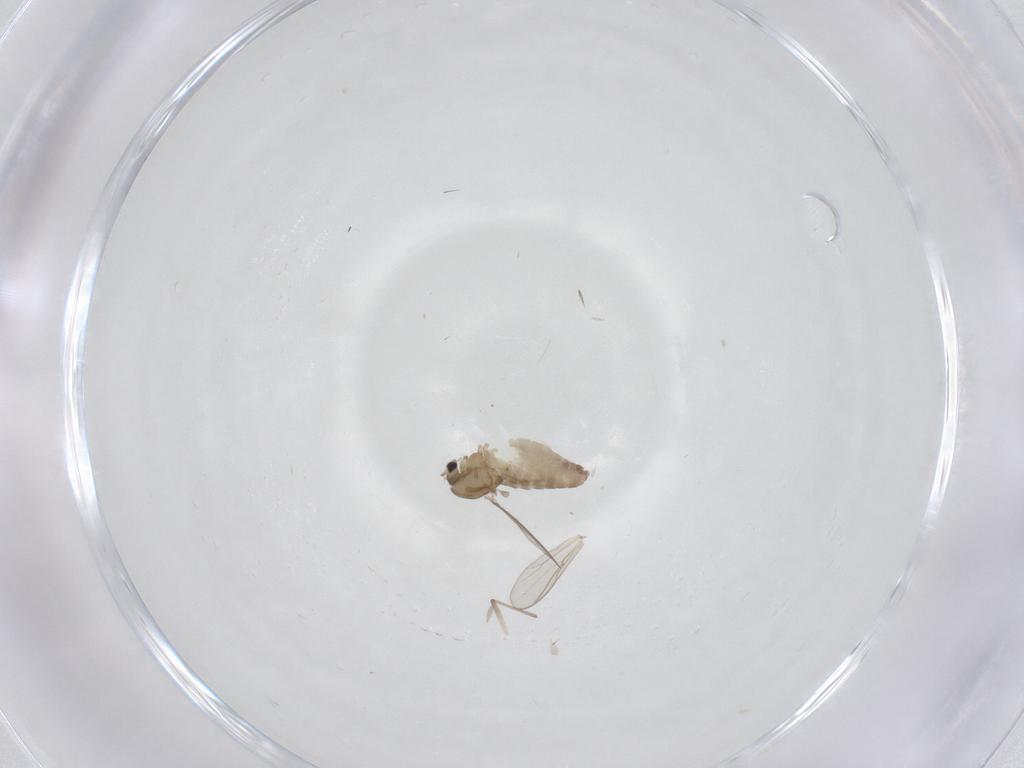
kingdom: Animalia
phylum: Arthropoda
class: Insecta
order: Diptera
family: Chironomidae
